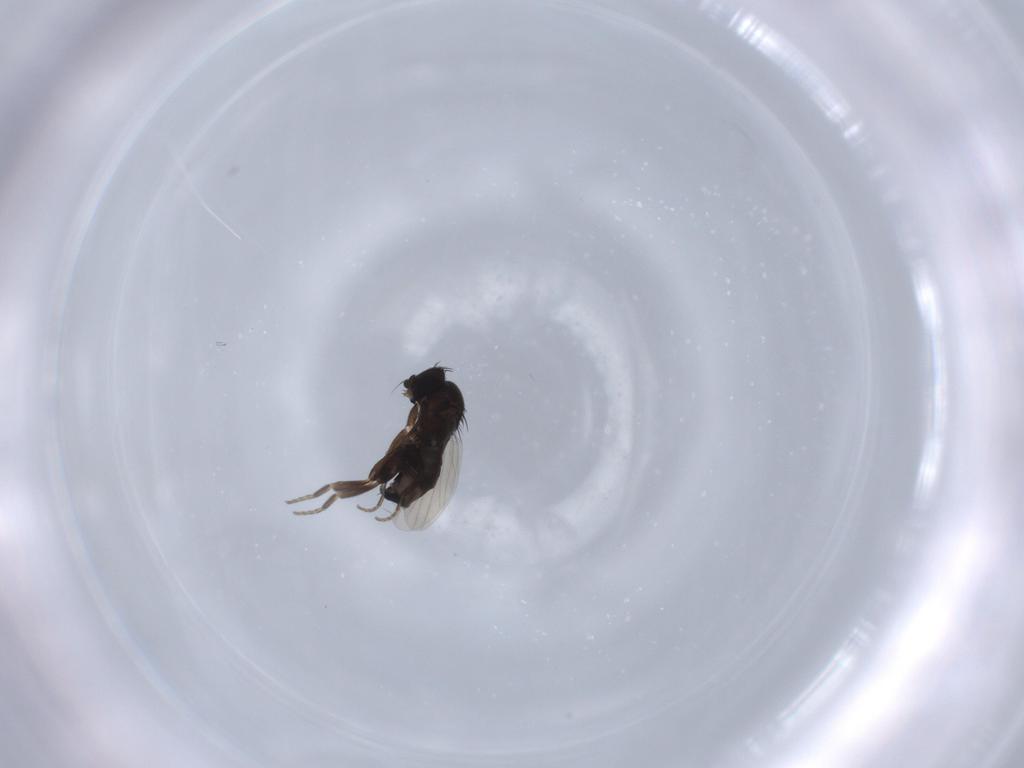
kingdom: Animalia
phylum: Arthropoda
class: Insecta
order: Diptera
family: Phoridae
